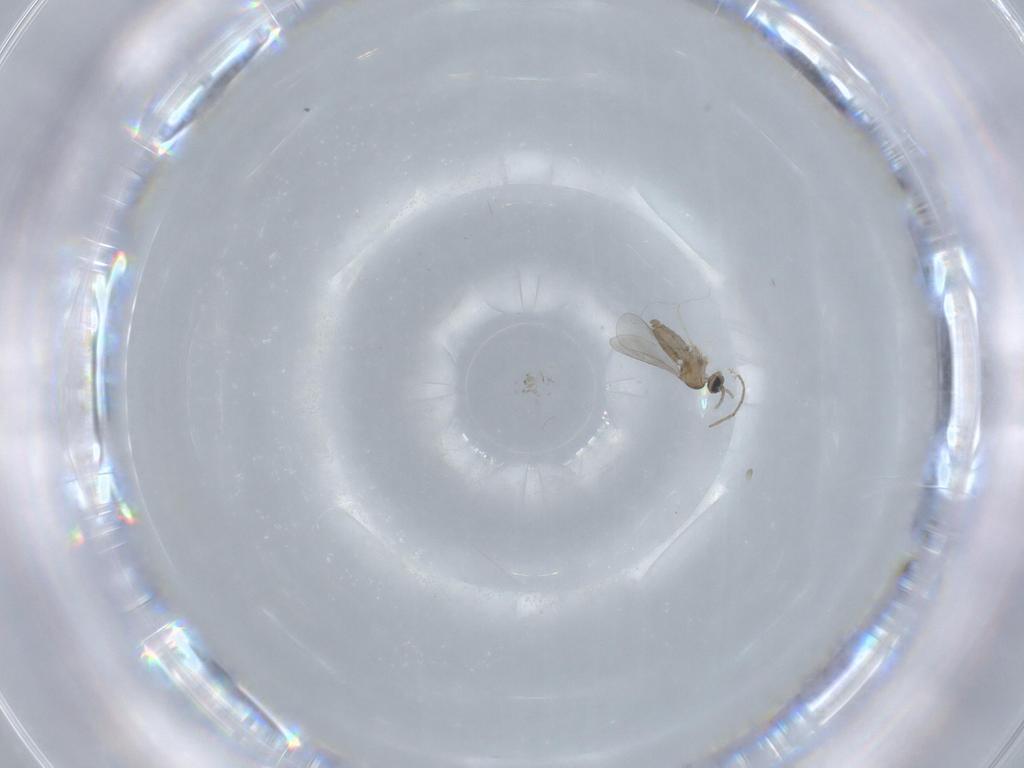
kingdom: Animalia
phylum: Arthropoda
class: Insecta
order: Diptera
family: Cecidomyiidae
